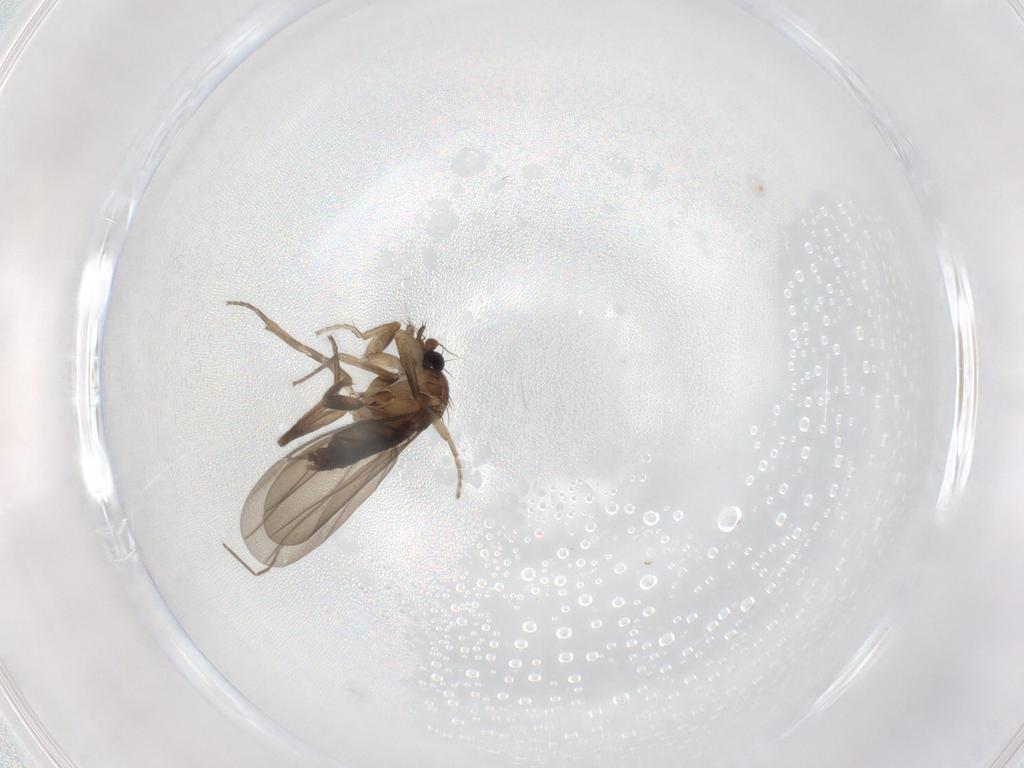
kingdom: Animalia
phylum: Arthropoda
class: Insecta
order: Diptera
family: Phoridae
